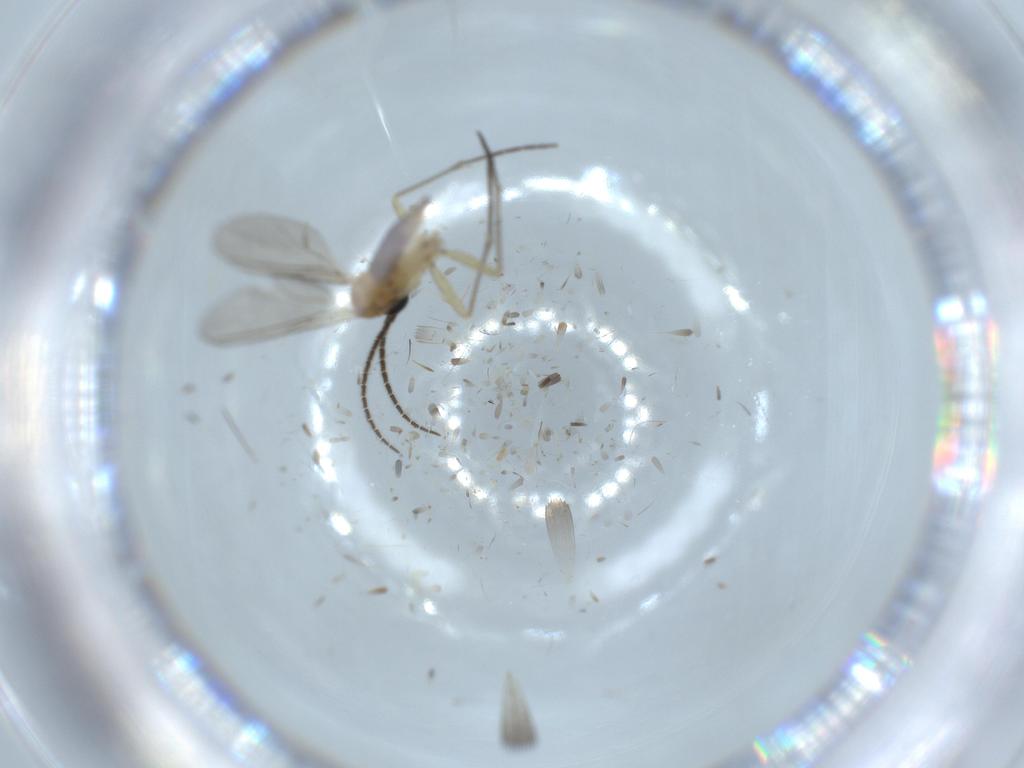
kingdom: Animalia
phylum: Arthropoda
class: Insecta
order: Diptera
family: Sciaridae
